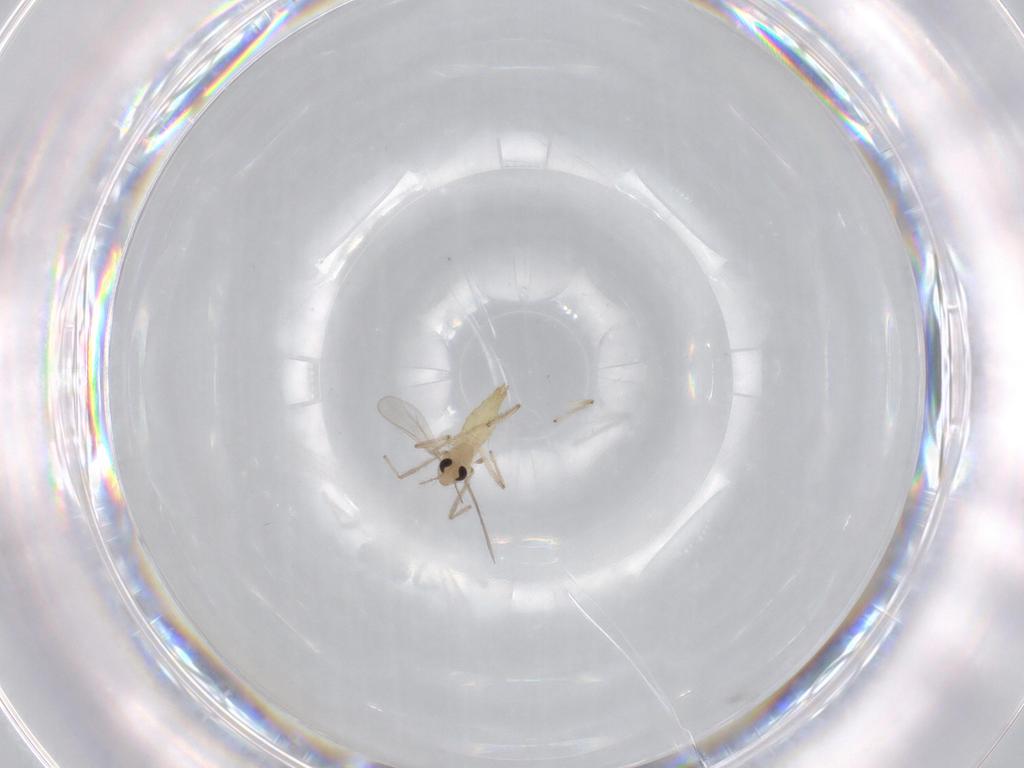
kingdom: Animalia
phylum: Arthropoda
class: Insecta
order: Diptera
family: Chironomidae
